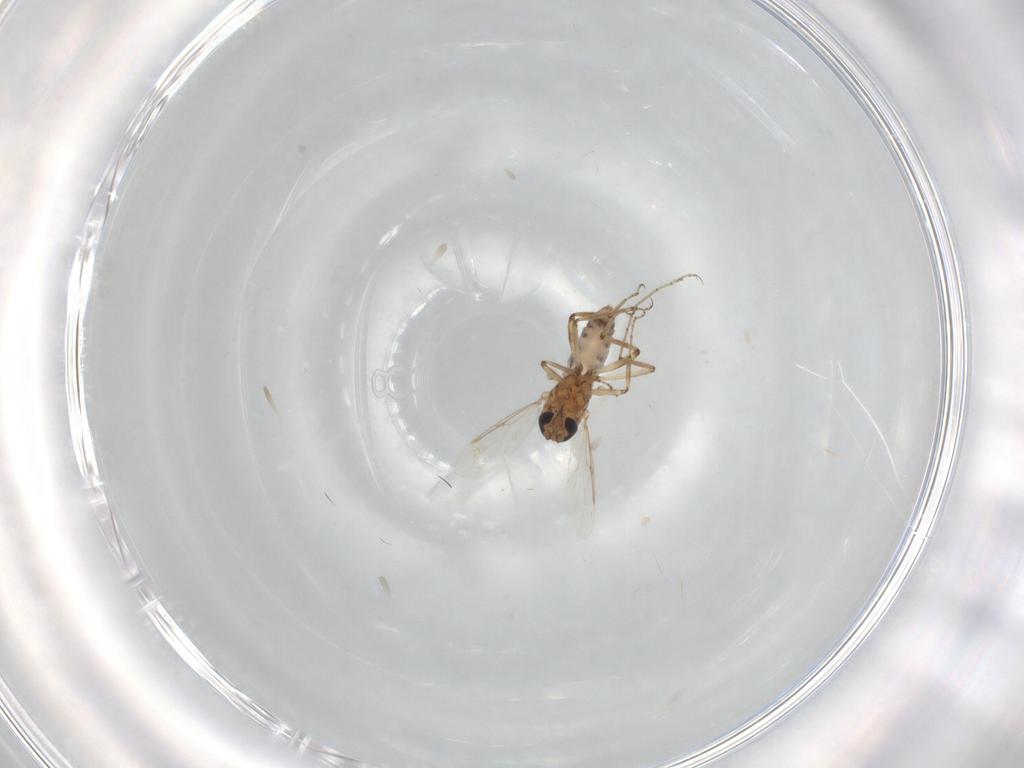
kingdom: Animalia
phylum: Arthropoda
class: Insecta
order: Diptera
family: Ceratopogonidae
